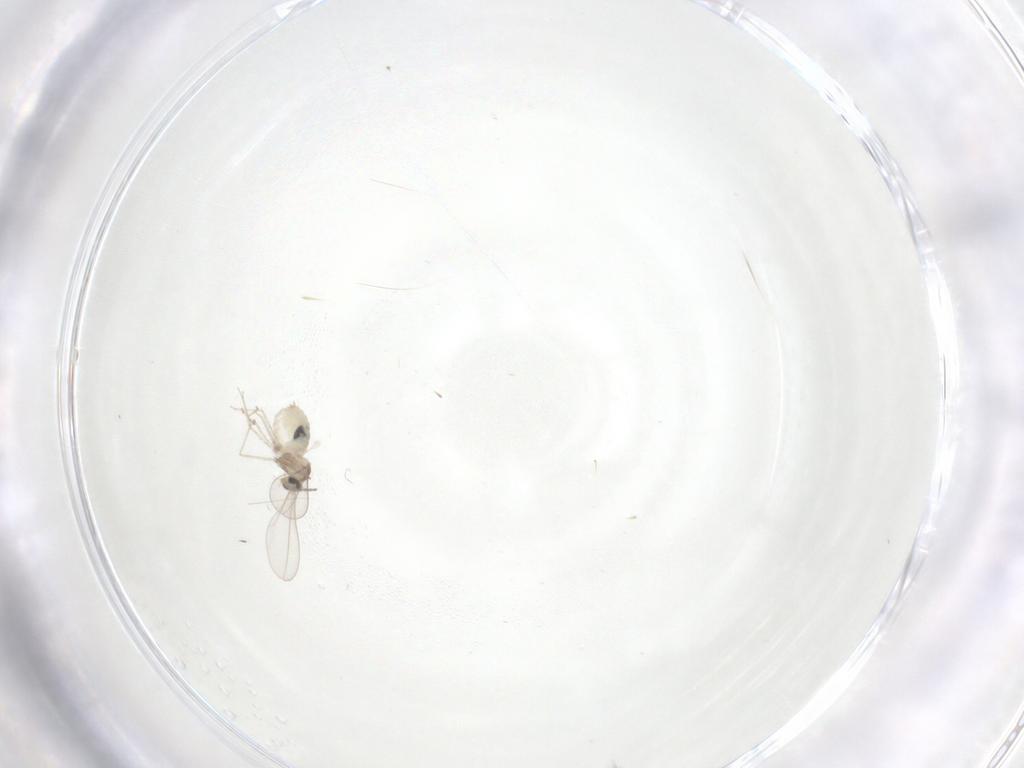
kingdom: Animalia
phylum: Arthropoda
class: Insecta
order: Diptera
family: Cecidomyiidae
